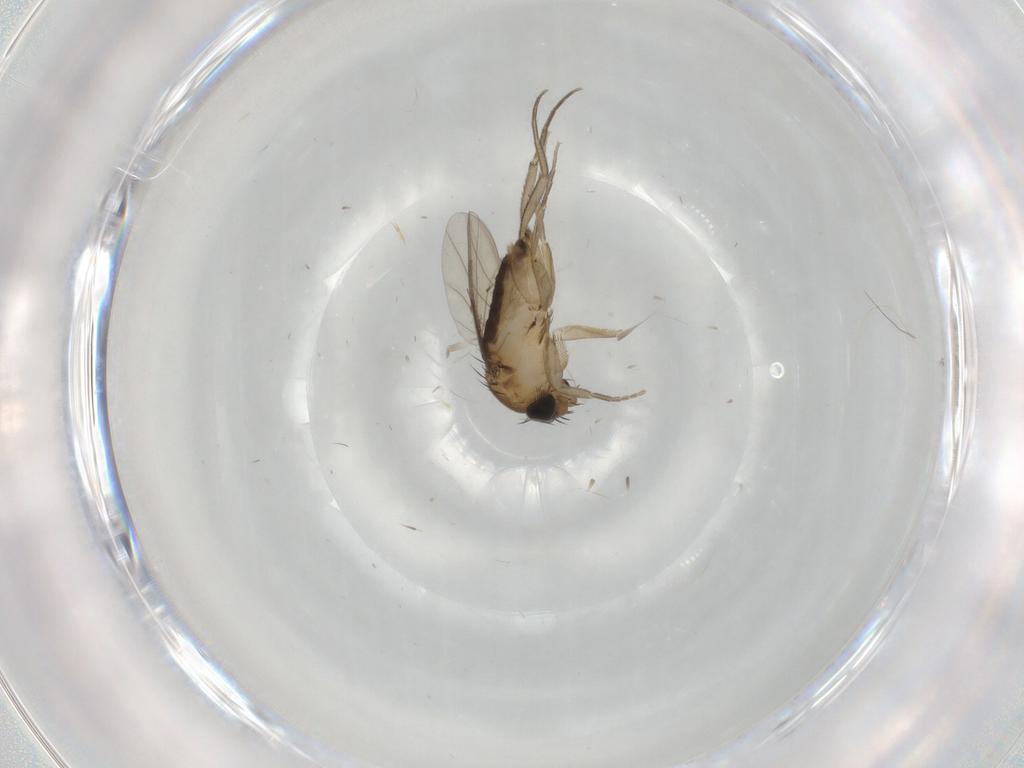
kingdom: Animalia
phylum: Arthropoda
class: Insecta
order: Diptera
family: Phoridae
